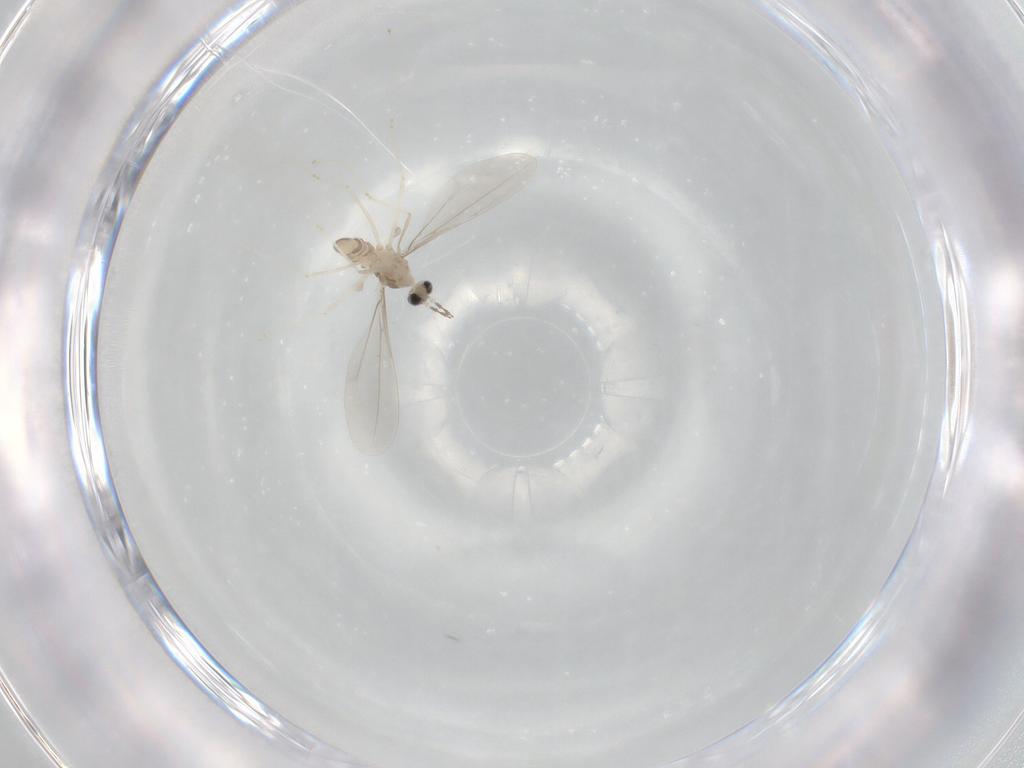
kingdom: Animalia
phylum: Arthropoda
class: Insecta
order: Diptera
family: Cecidomyiidae
